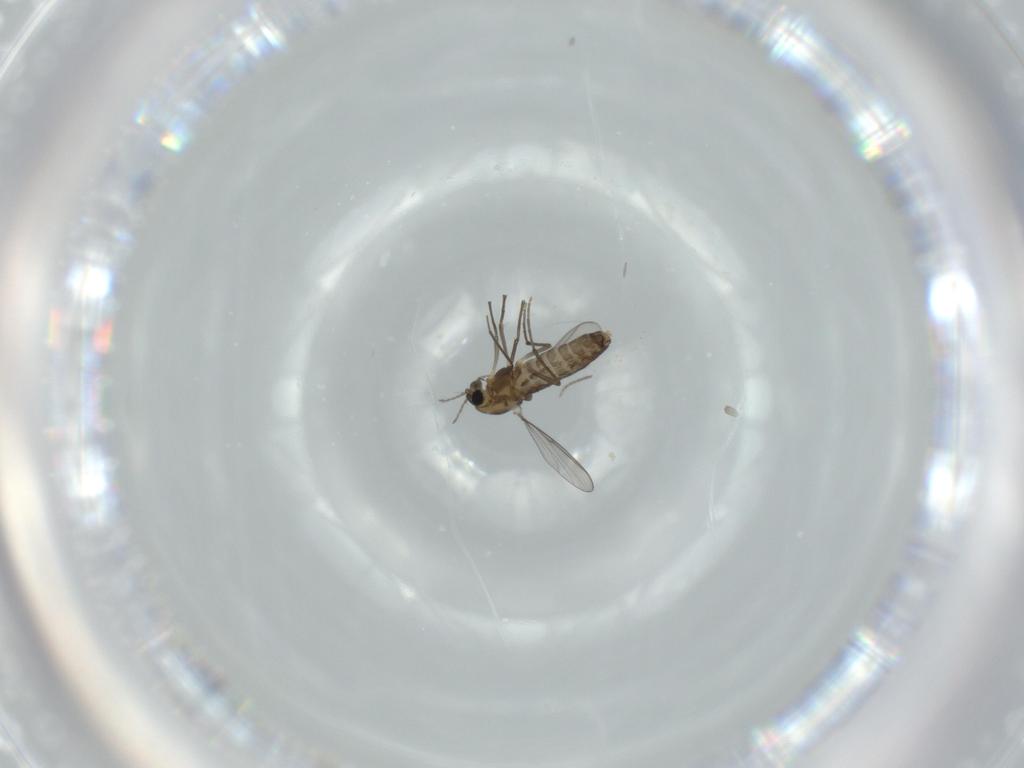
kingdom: Animalia
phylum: Arthropoda
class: Insecta
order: Diptera
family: Chironomidae
